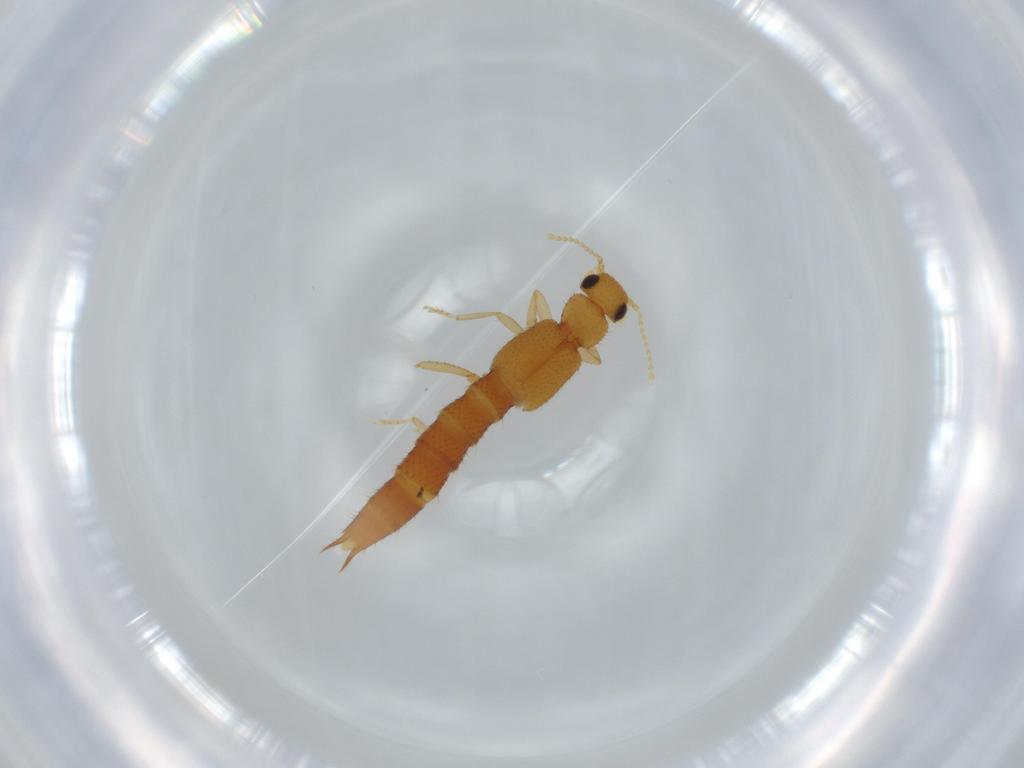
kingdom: Animalia
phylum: Arthropoda
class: Insecta
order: Coleoptera
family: Staphylinidae
